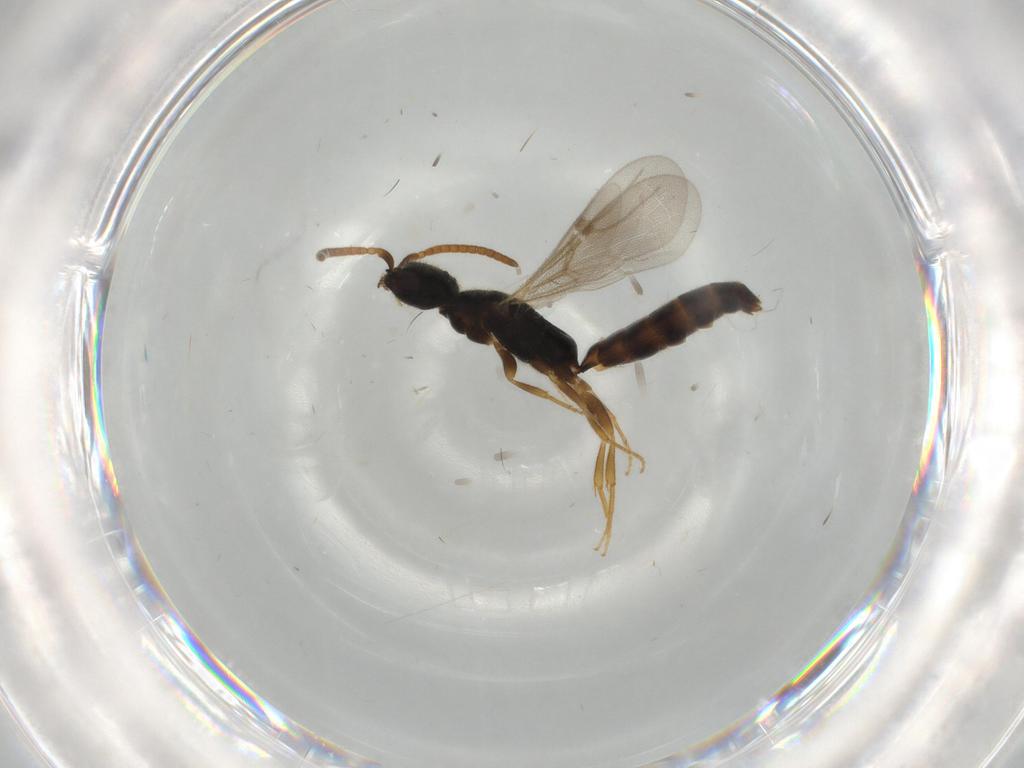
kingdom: Animalia
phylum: Arthropoda
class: Insecta
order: Hymenoptera
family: Bethylidae
